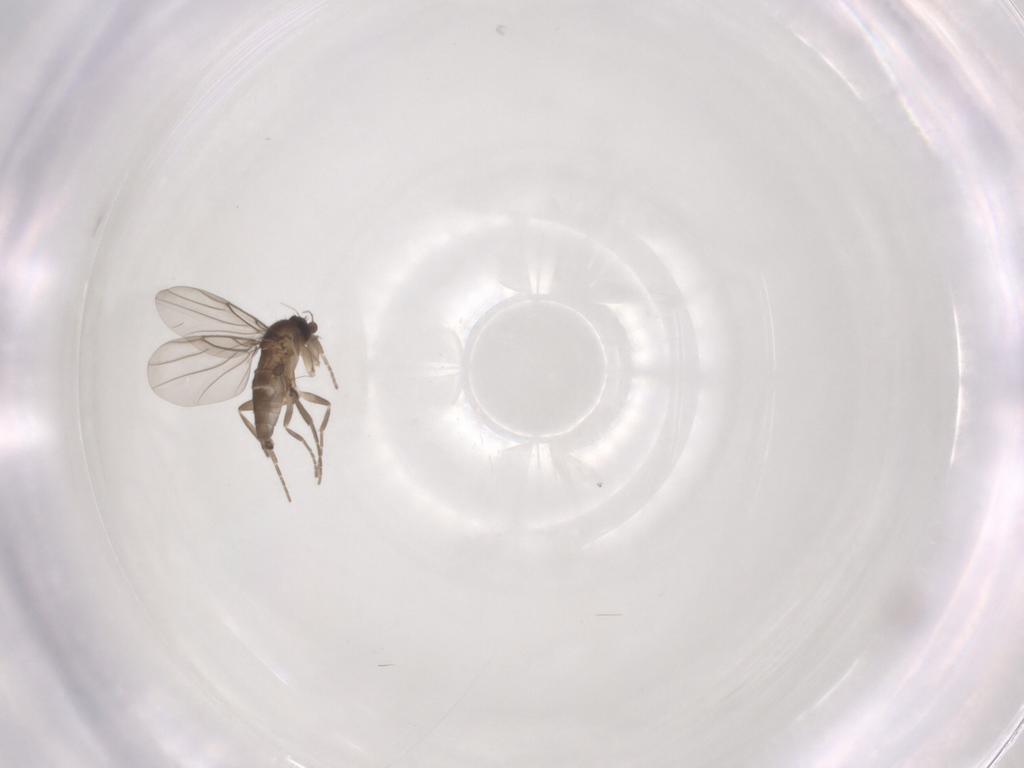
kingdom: Animalia
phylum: Arthropoda
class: Insecta
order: Diptera
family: Phoridae
